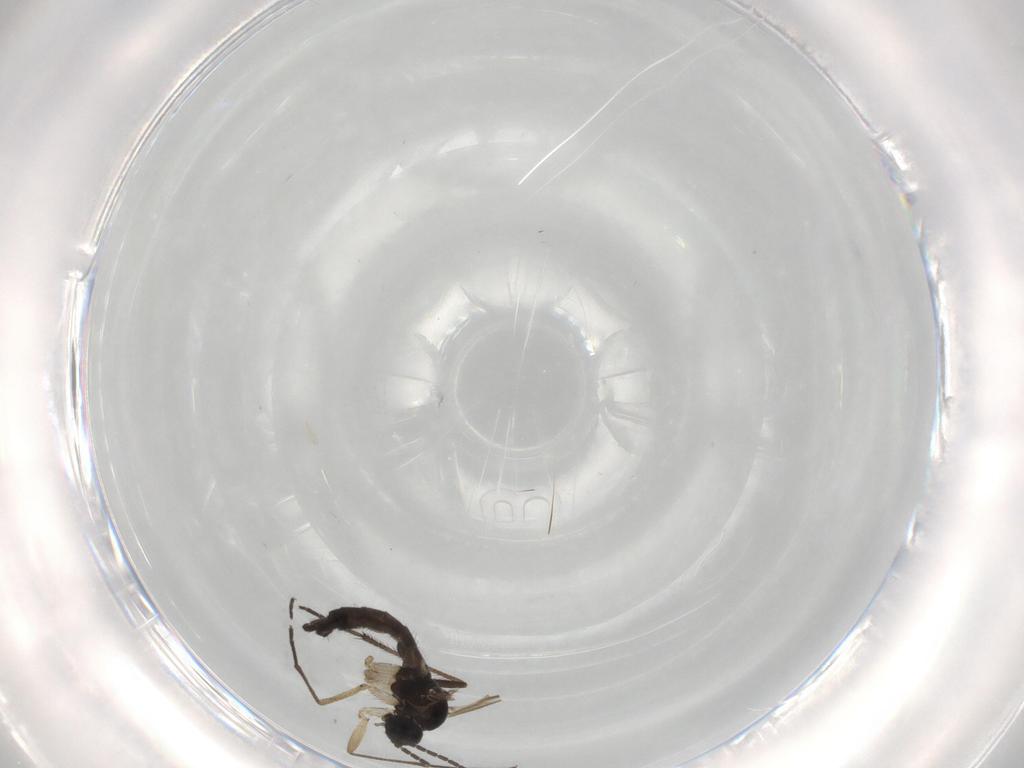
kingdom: Animalia
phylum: Arthropoda
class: Insecta
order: Diptera
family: Sciaridae
